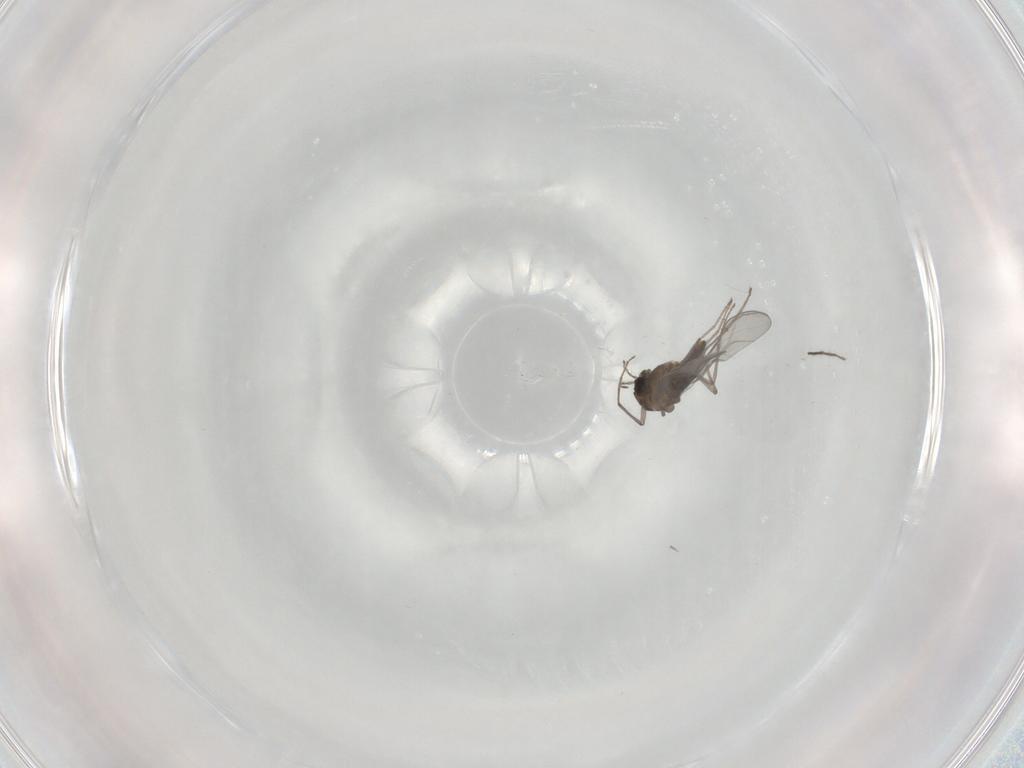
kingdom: Animalia
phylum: Arthropoda
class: Insecta
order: Diptera
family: Chironomidae
